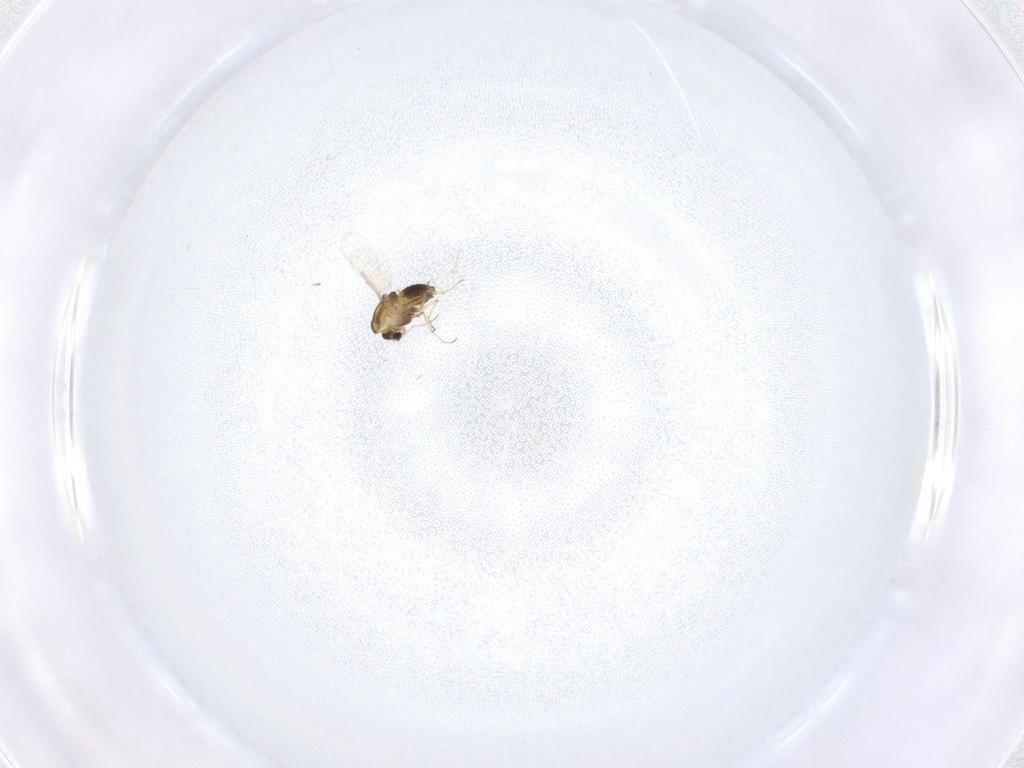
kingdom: Animalia
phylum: Arthropoda
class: Insecta
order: Diptera
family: Chironomidae
